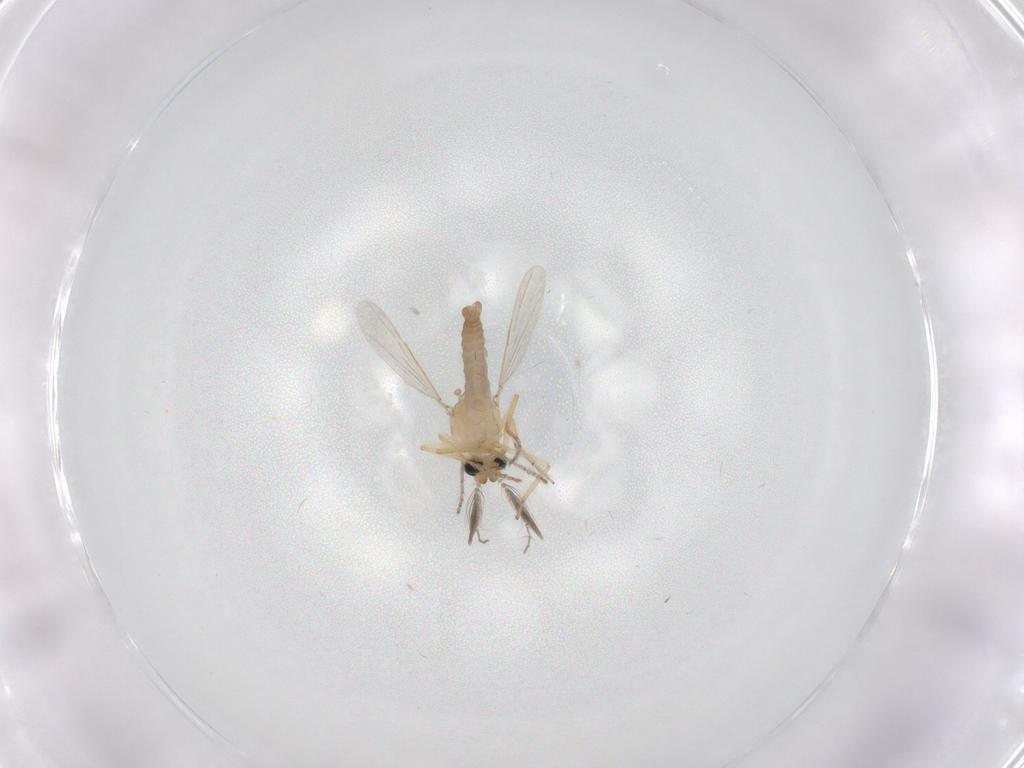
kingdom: Animalia
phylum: Arthropoda
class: Insecta
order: Diptera
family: Ceratopogonidae
